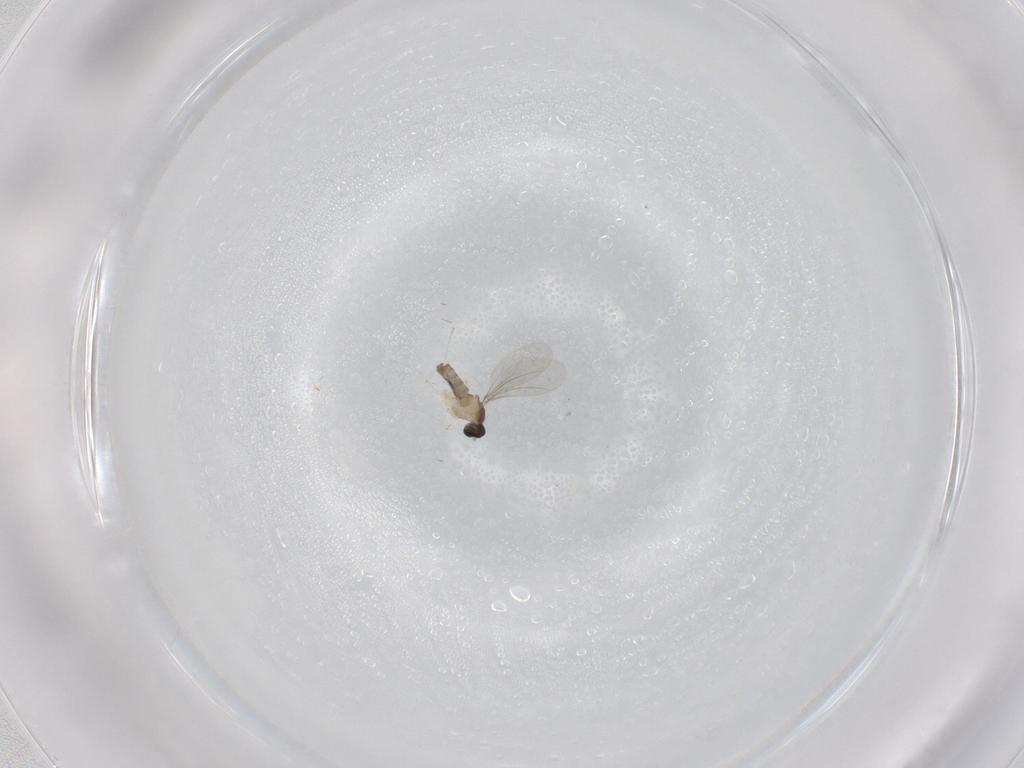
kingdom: Animalia
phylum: Arthropoda
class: Insecta
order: Diptera
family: Cecidomyiidae
